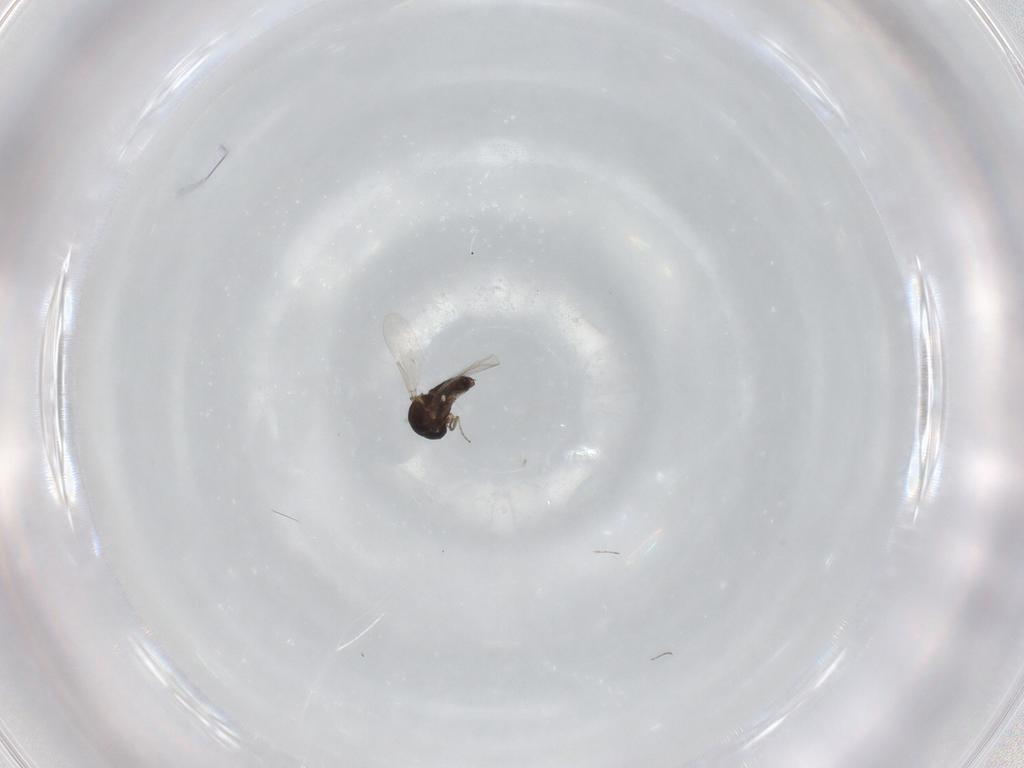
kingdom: Animalia
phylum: Arthropoda
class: Insecta
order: Diptera
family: Ceratopogonidae
